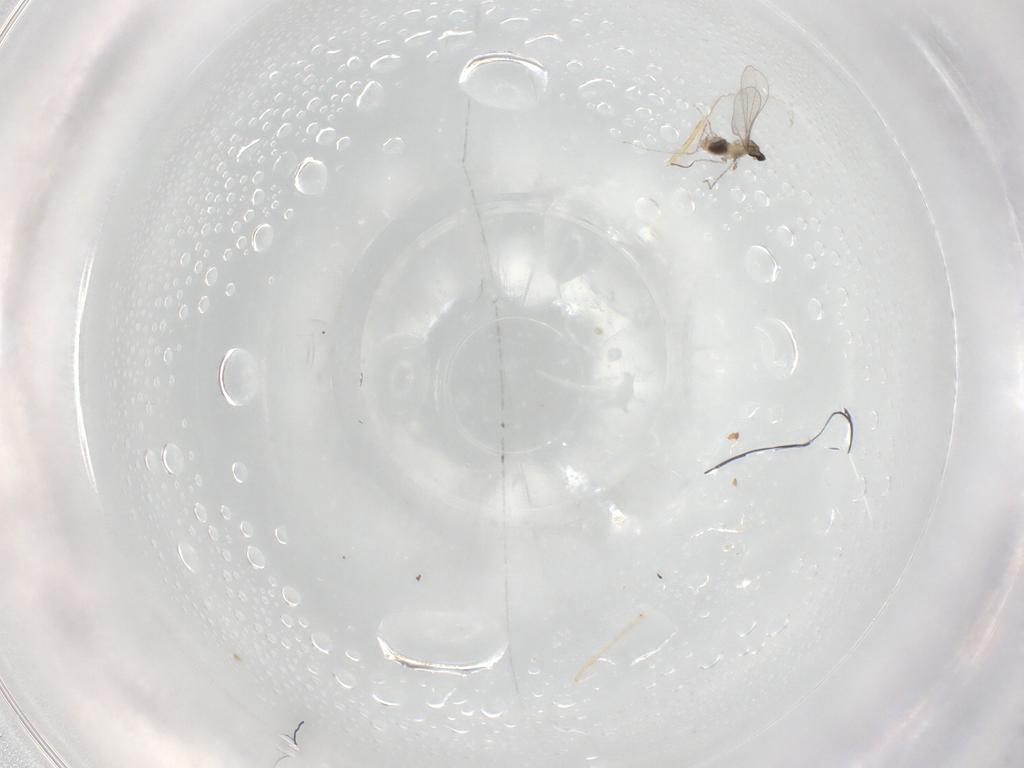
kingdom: Animalia
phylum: Arthropoda
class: Insecta
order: Diptera
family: Cecidomyiidae
